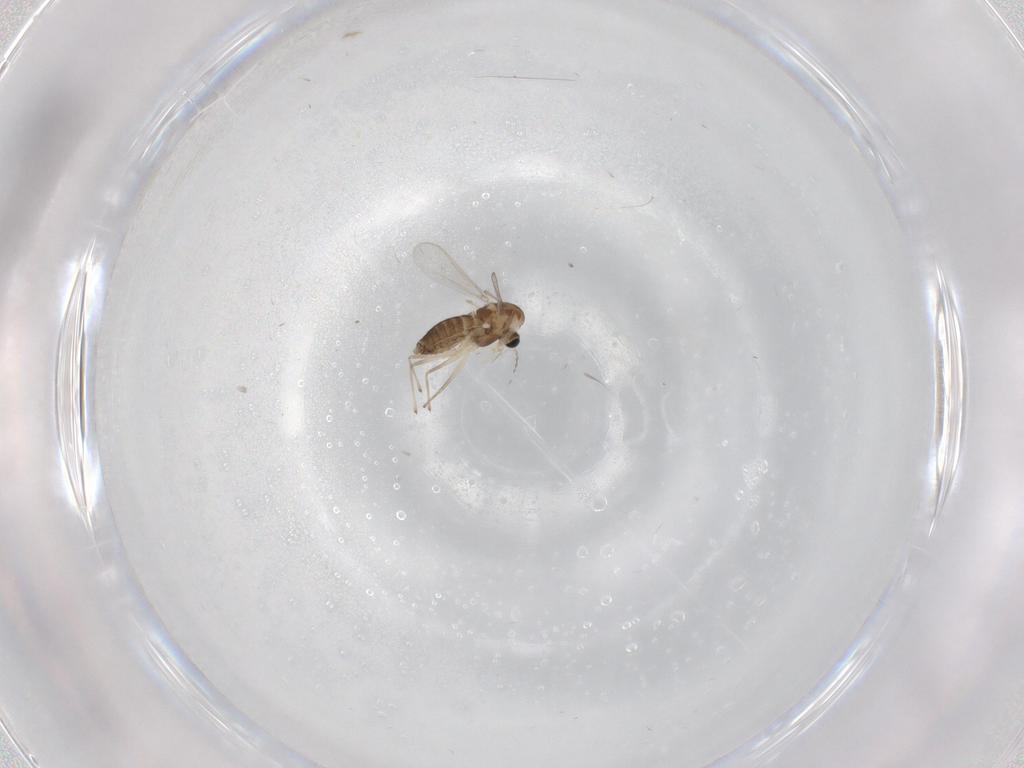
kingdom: Animalia
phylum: Arthropoda
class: Insecta
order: Diptera
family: Chironomidae
